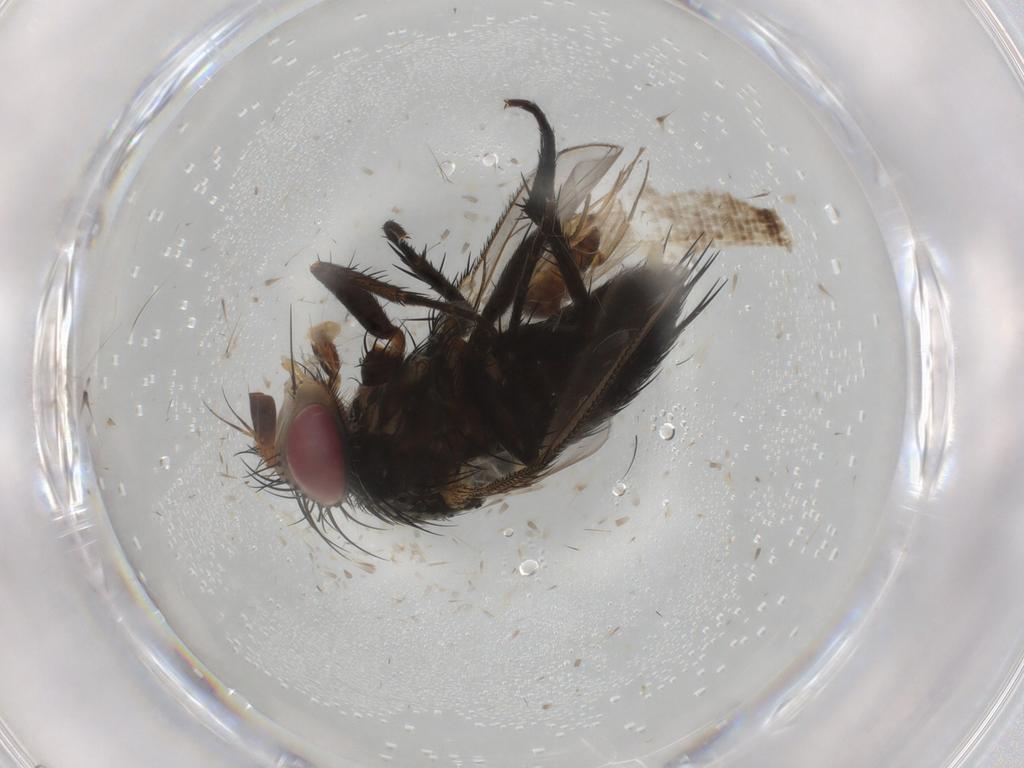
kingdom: Animalia
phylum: Arthropoda
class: Insecta
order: Diptera
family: Tachinidae
